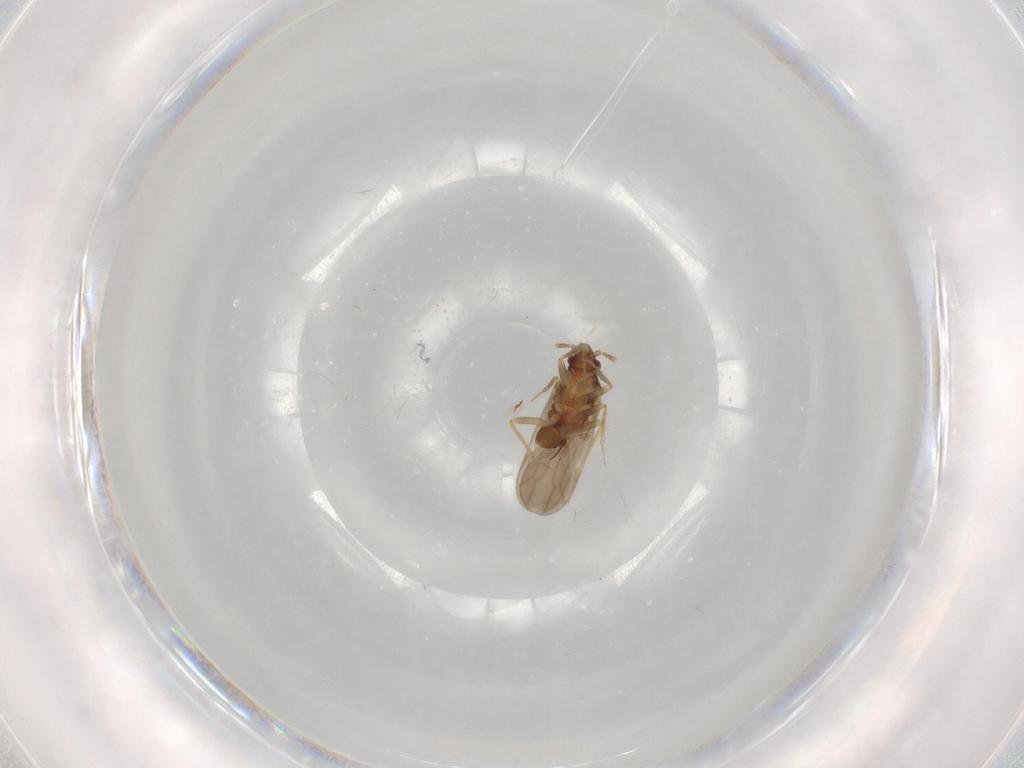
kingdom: Animalia
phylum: Arthropoda
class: Insecta
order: Hemiptera
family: Ceratocombidae
